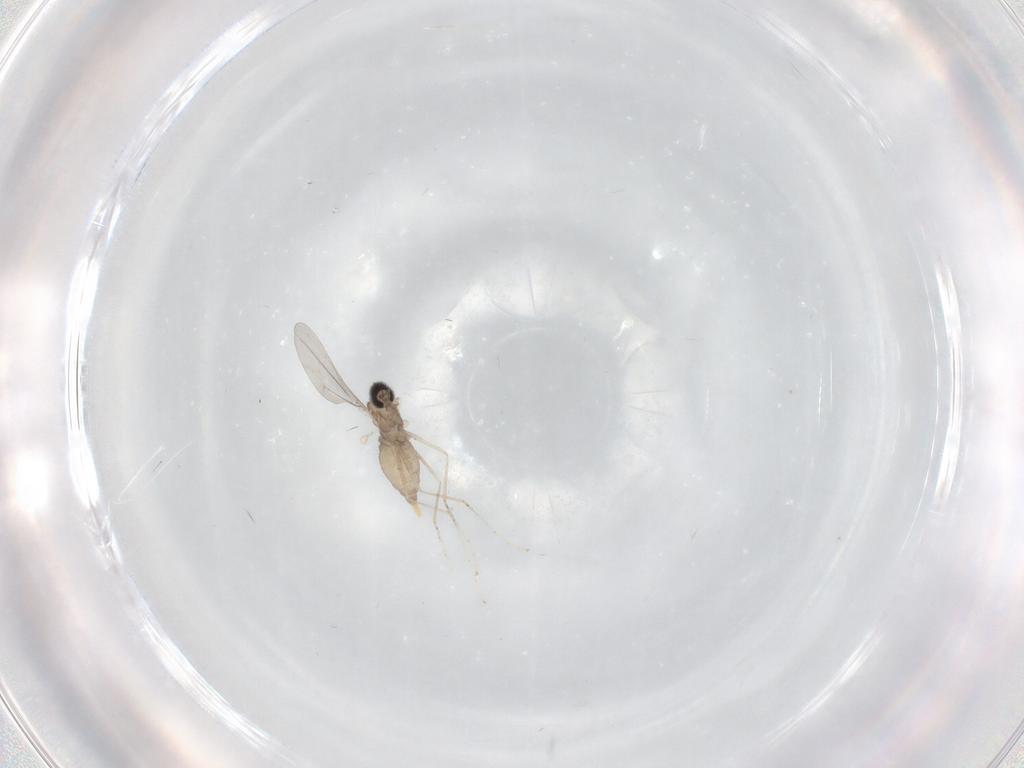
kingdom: Animalia
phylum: Arthropoda
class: Insecta
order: Diptera
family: Cecidomyiidae
